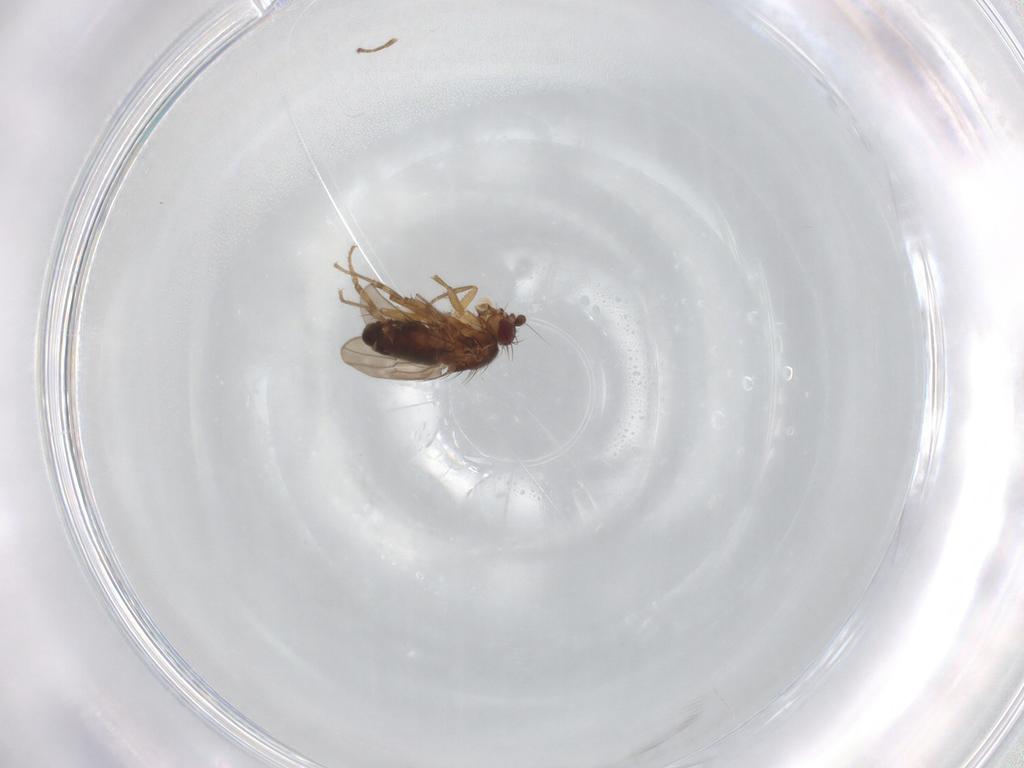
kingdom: Animalia
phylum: Arthropoda
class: Insecta
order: Diptera
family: Sphaeroceridae
